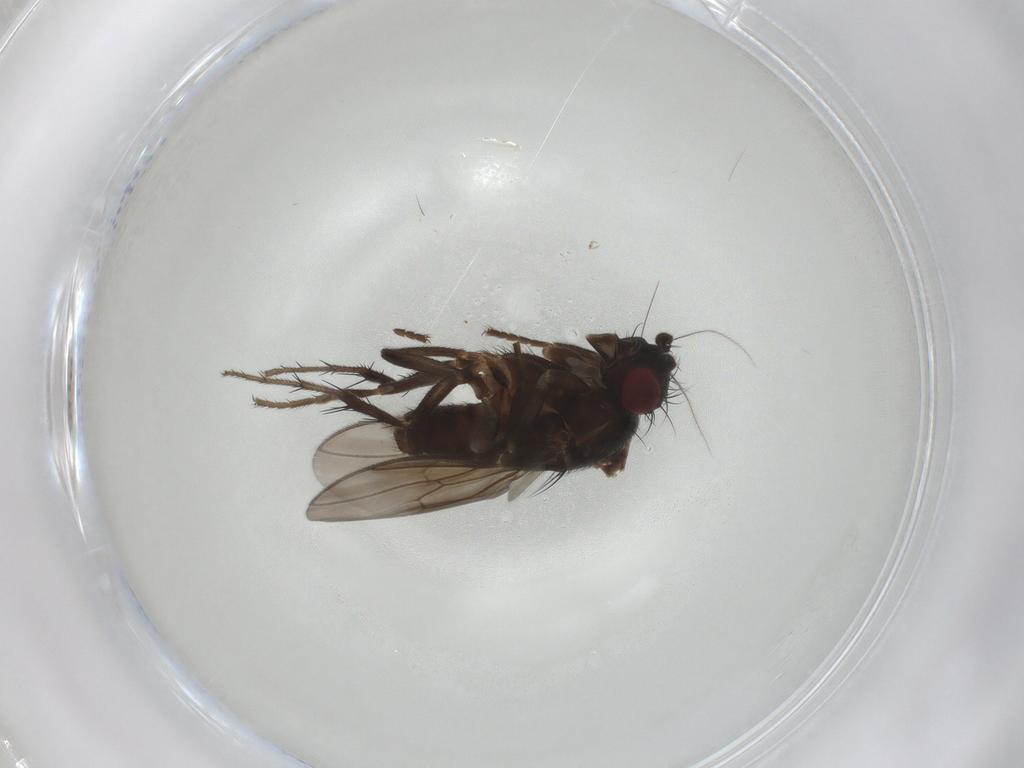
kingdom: Animalia
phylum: Arthropoda
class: Insecta
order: Diptera
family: Sphaeroceridae
